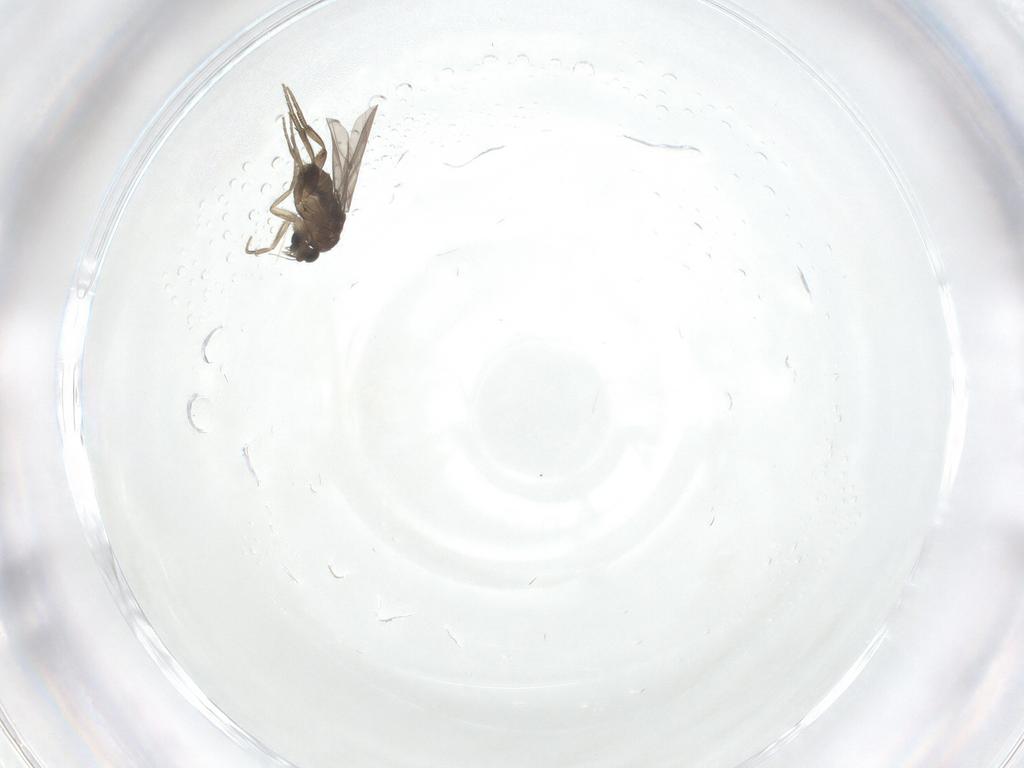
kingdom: Animalia
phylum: Arthropoda
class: Insecta
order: Diptera
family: Phoridae
